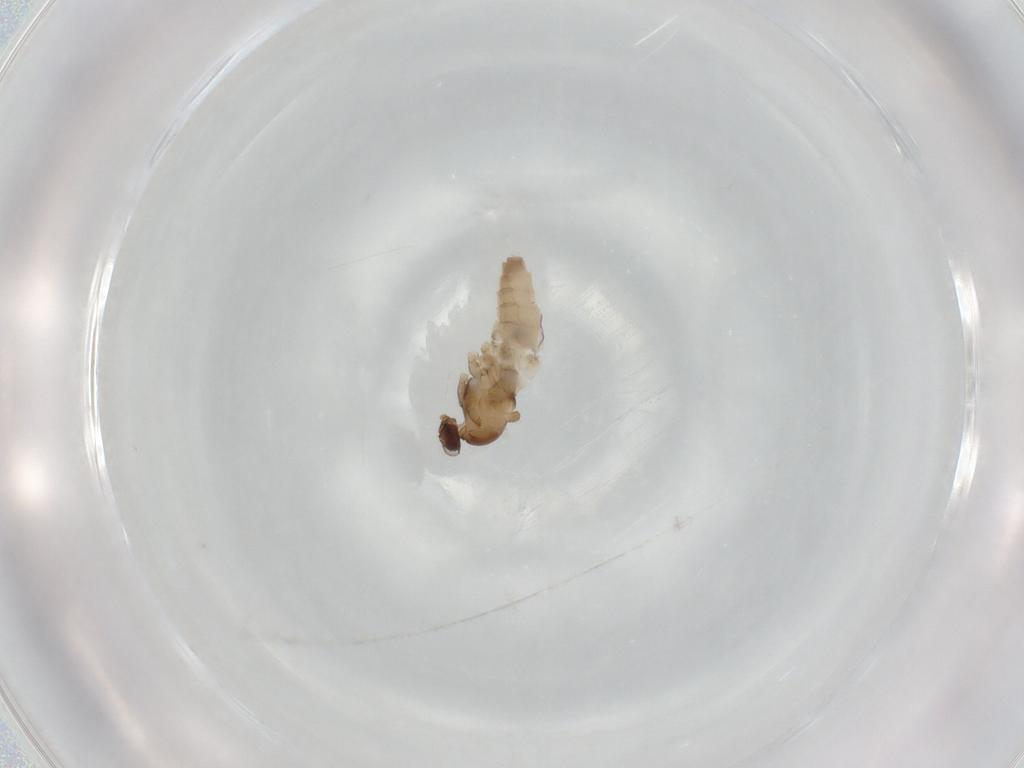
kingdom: Animalia
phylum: Arthropoda
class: Insecta
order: Diptera
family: Cecidomyiidae
